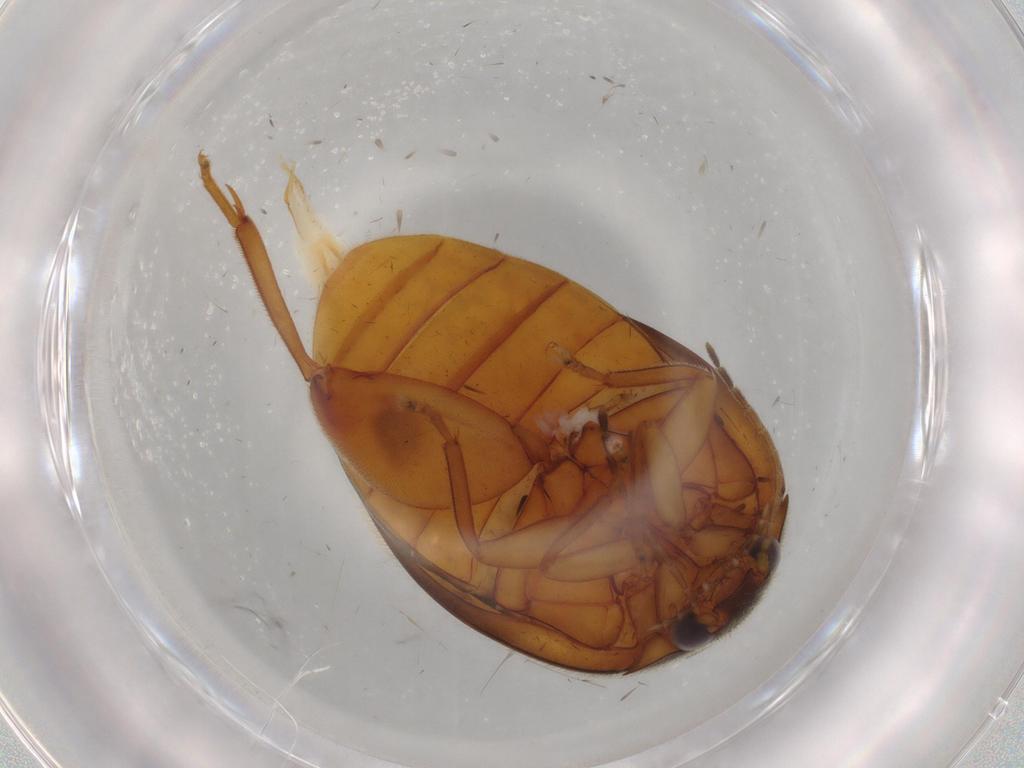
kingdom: Animalia
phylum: Arthropoda
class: Insecta
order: Coleoptera
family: Scirtidae
